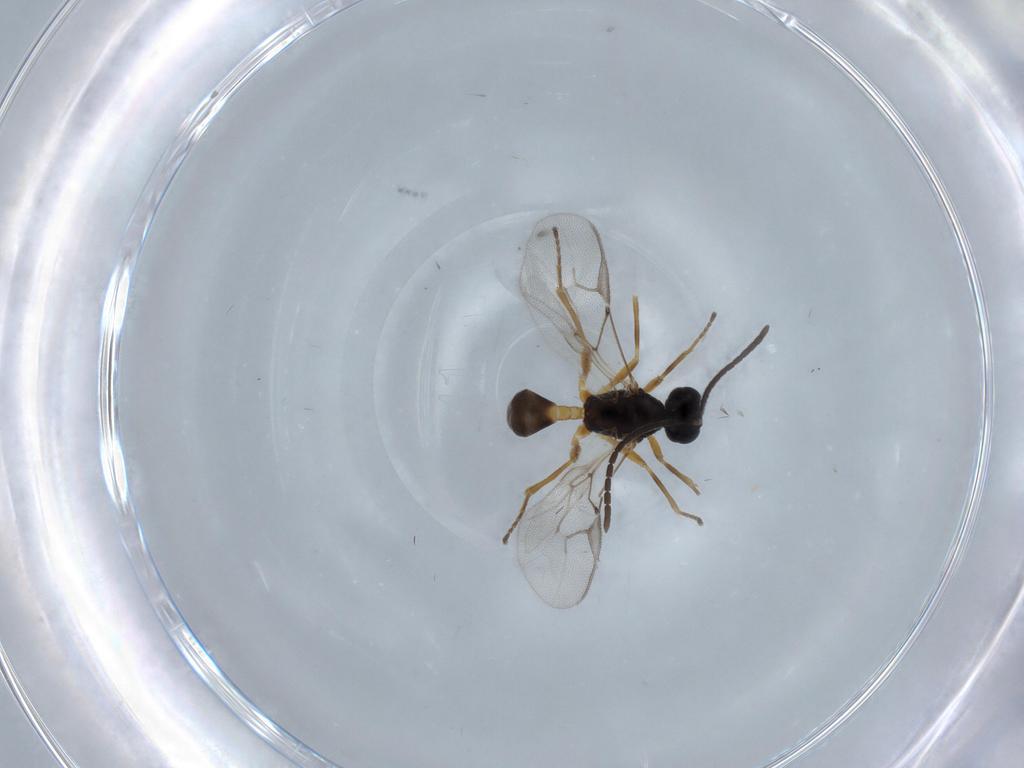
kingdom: Animalia
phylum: Arthropoda
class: Insecta
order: Hymenoptera
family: Braconidae
